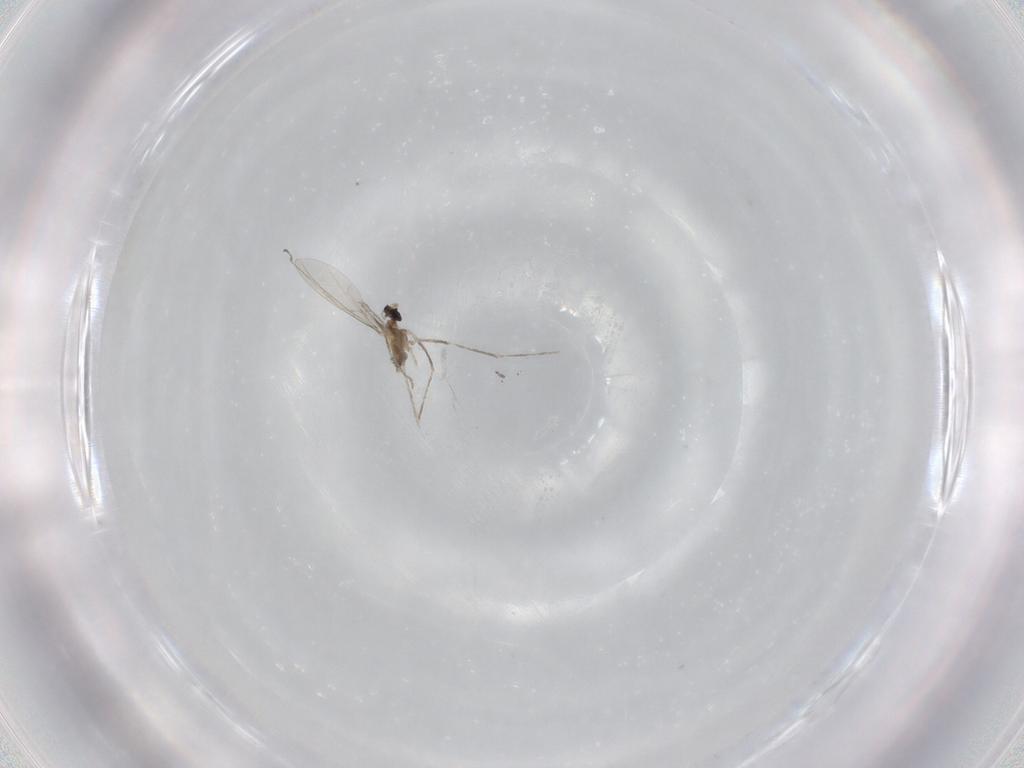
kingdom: Animalia
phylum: Arthropoda
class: Insecta
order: Diptera
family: Cecidomyiidae
